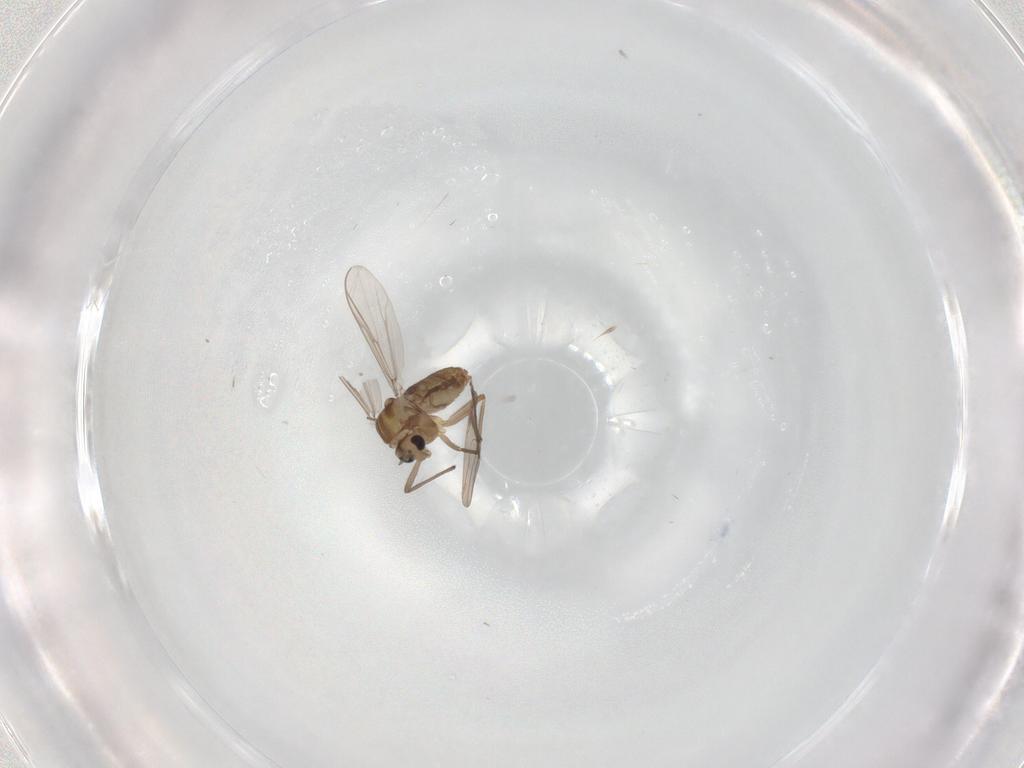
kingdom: Animalia
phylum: Arthropoda
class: Insecta
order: Diptera
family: Chironomidae
